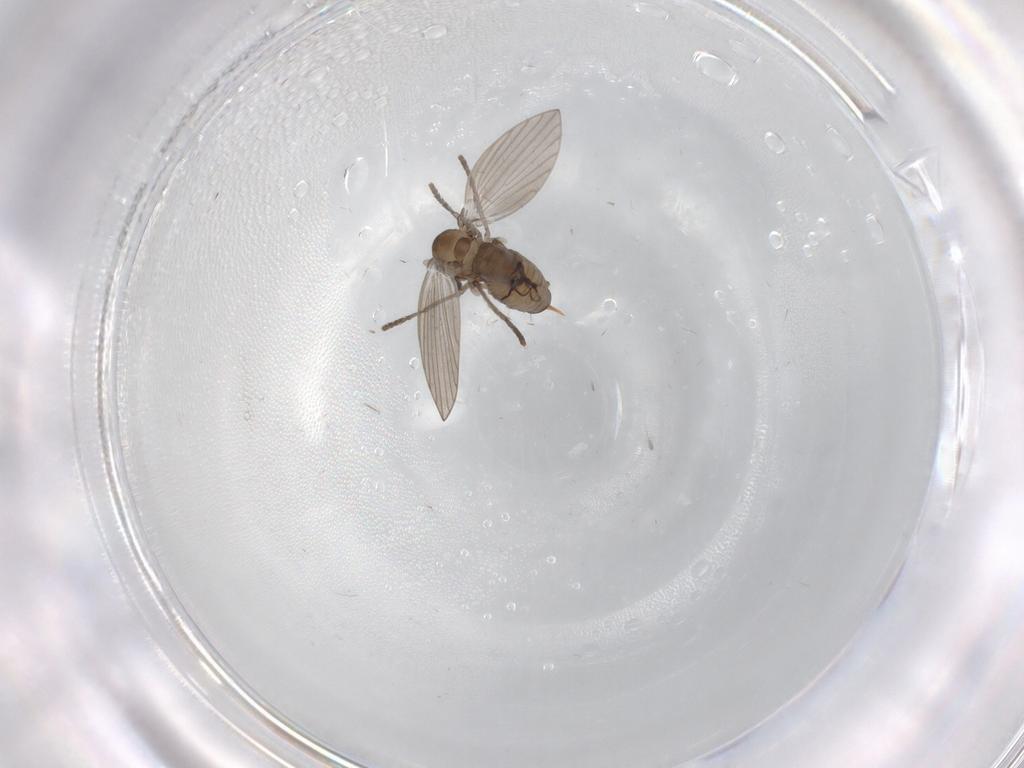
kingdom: Animalia
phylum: Arthropoda
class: Insecta
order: Diptera
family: Psychodidae
